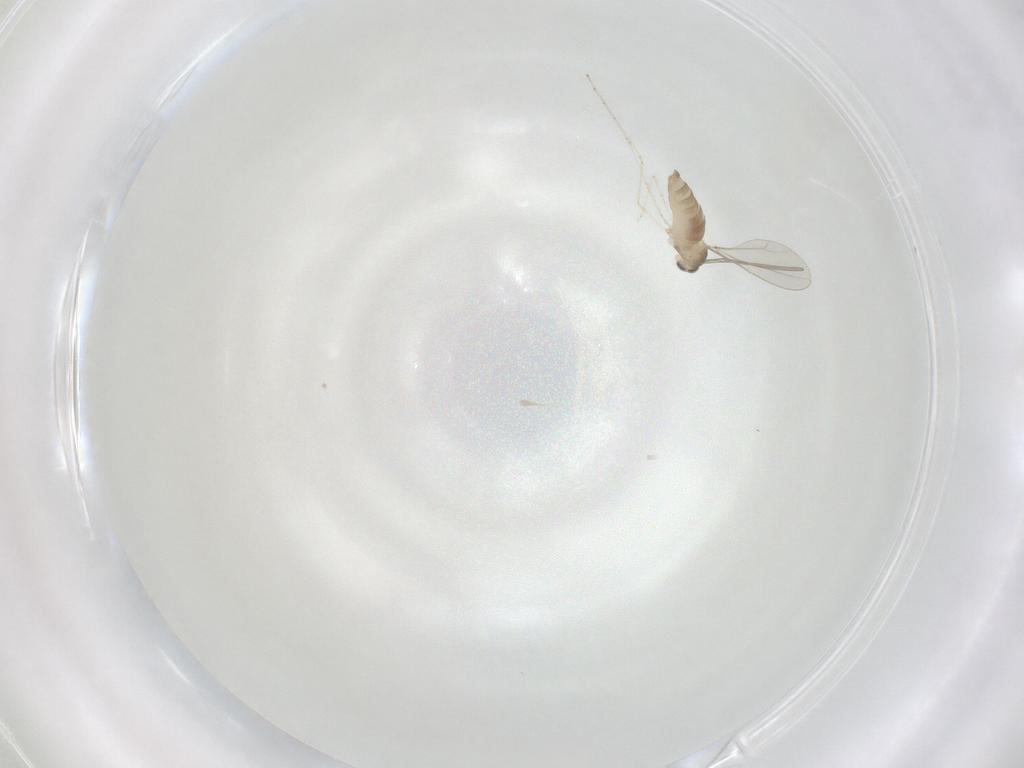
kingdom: Animalia
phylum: Arthropoda
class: Insecta
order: Diptera
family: Cecidomyiidae
